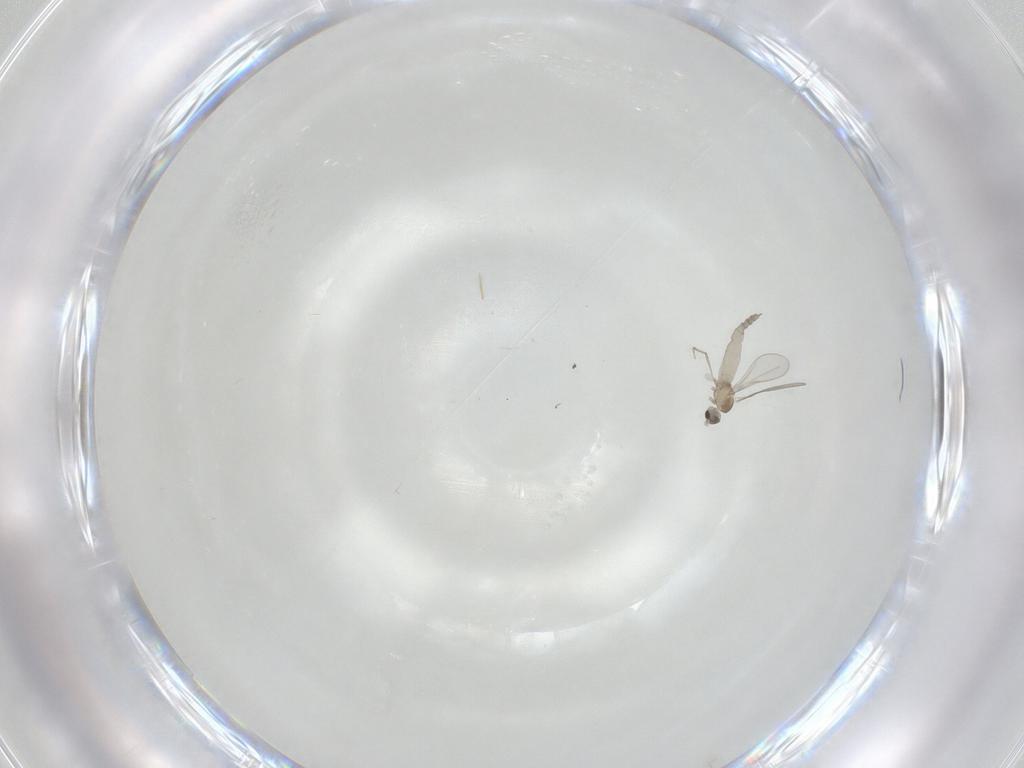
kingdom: Animalia
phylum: Arthropoda
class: Insecta
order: Diptera
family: Cecidomyiidae
